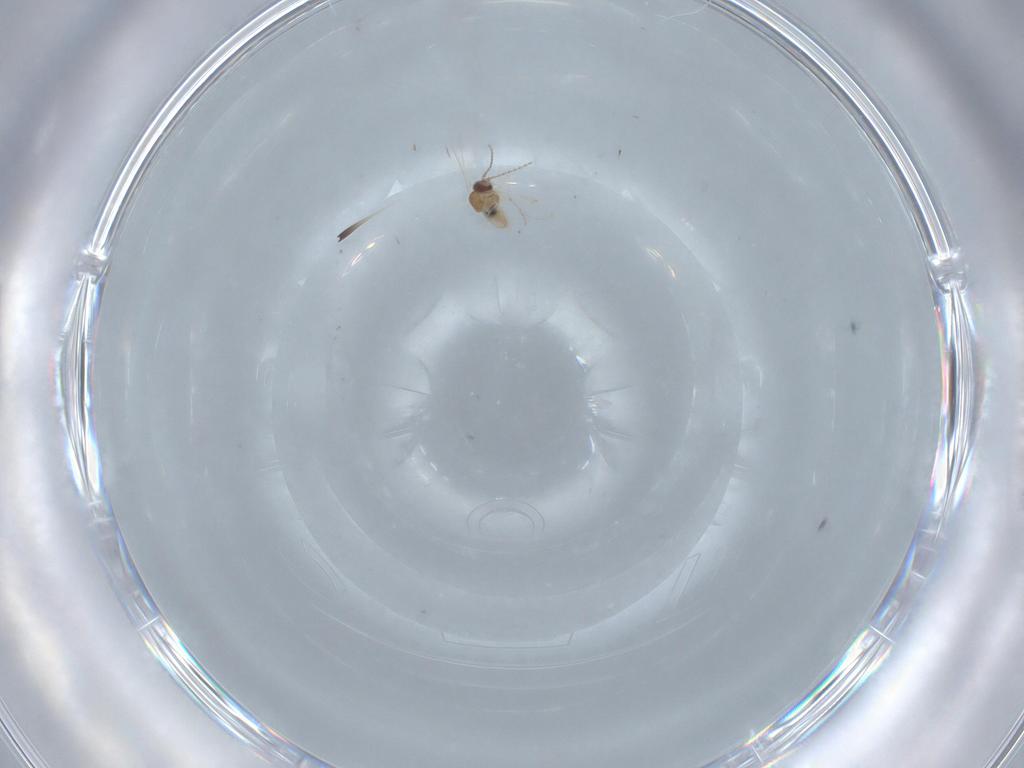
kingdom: Animalia
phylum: Arthropoda
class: Insecta
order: Diptera
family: Cecidomyiidae
